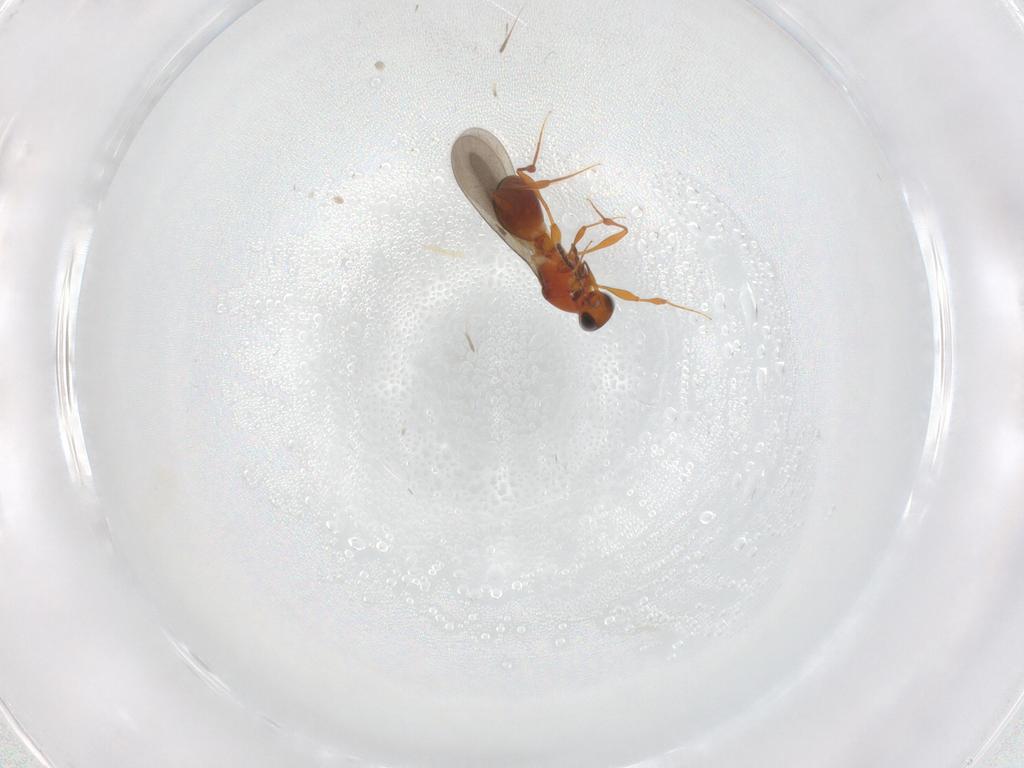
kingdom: Animalia
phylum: Arthropoda
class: Insecta
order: Hymenoptera
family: Platygastridae
